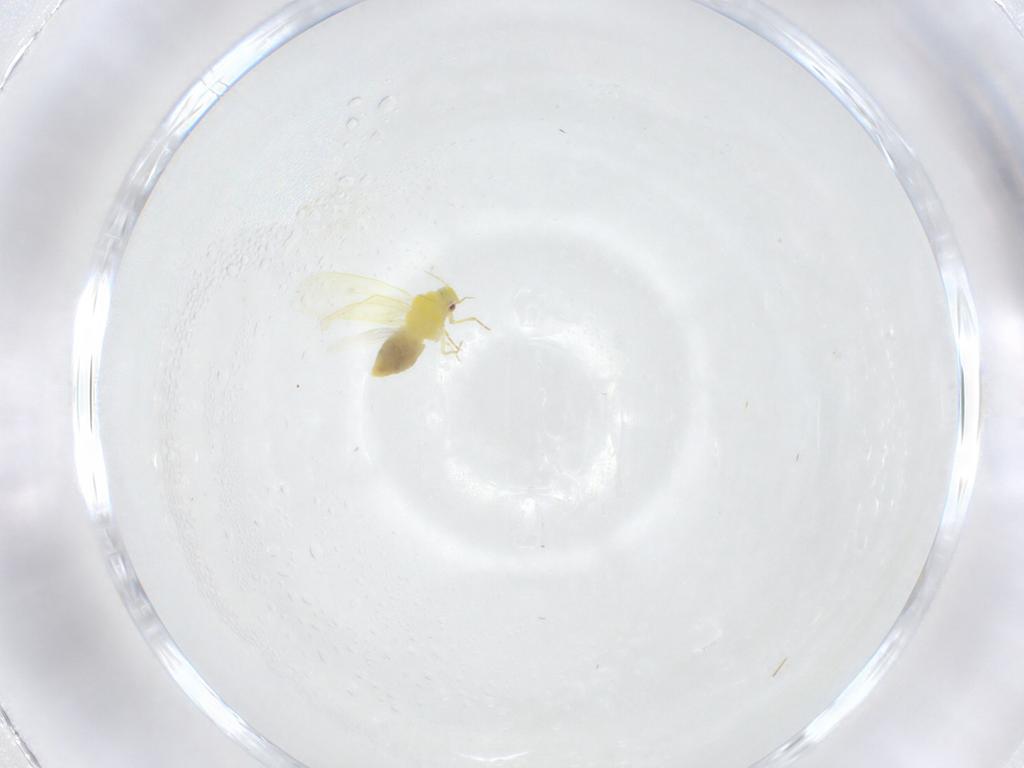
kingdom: Animalia
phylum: Arthropoda
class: Insecta
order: Hemiptera
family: Aleyrodidae
